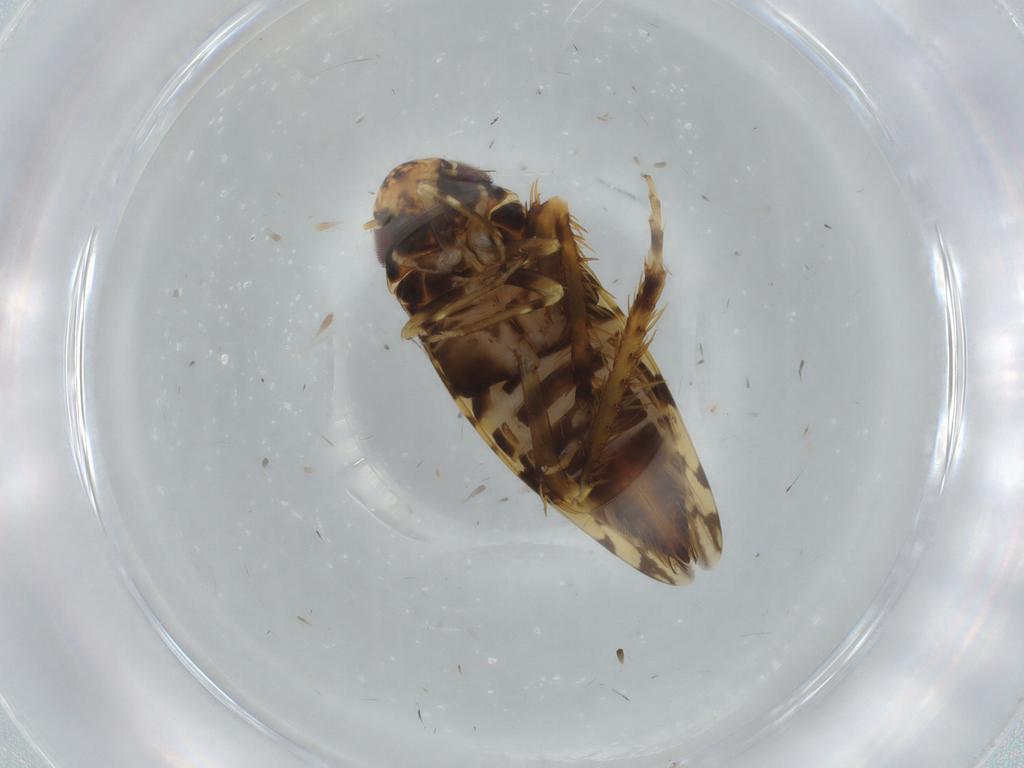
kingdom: Animalia
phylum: Arthropoda
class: Insecta
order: Hemiptera
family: Cicadellidae
